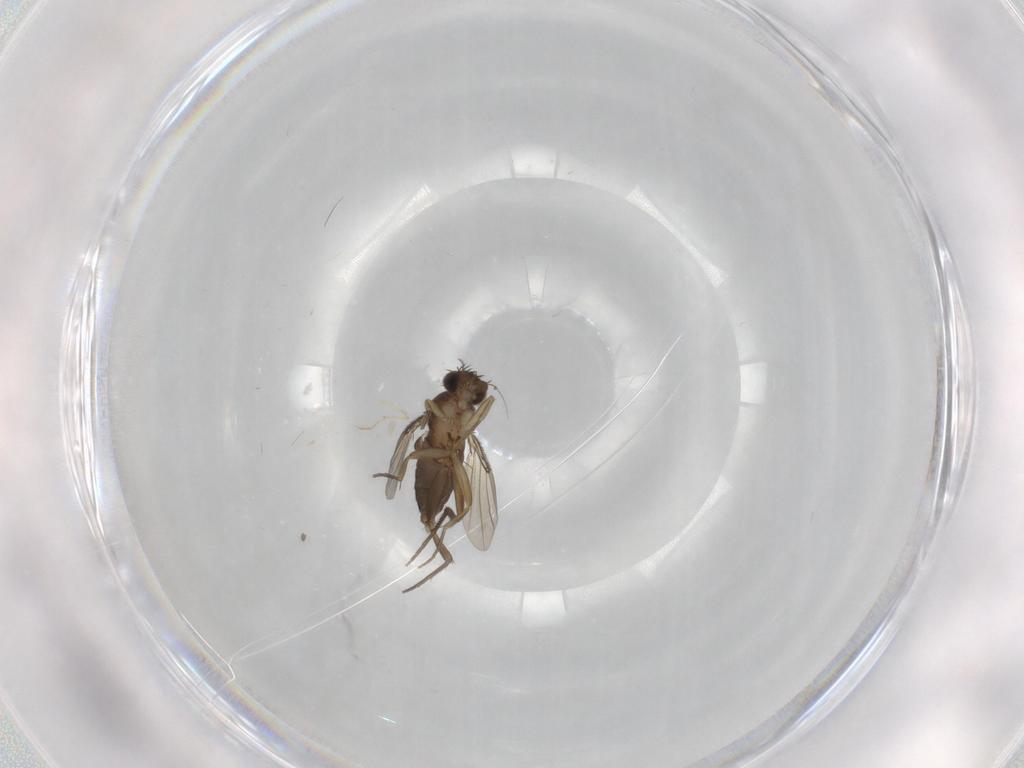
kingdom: Animalia
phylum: Arthropoda
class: Insecta
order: Diptera
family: Phoridae
